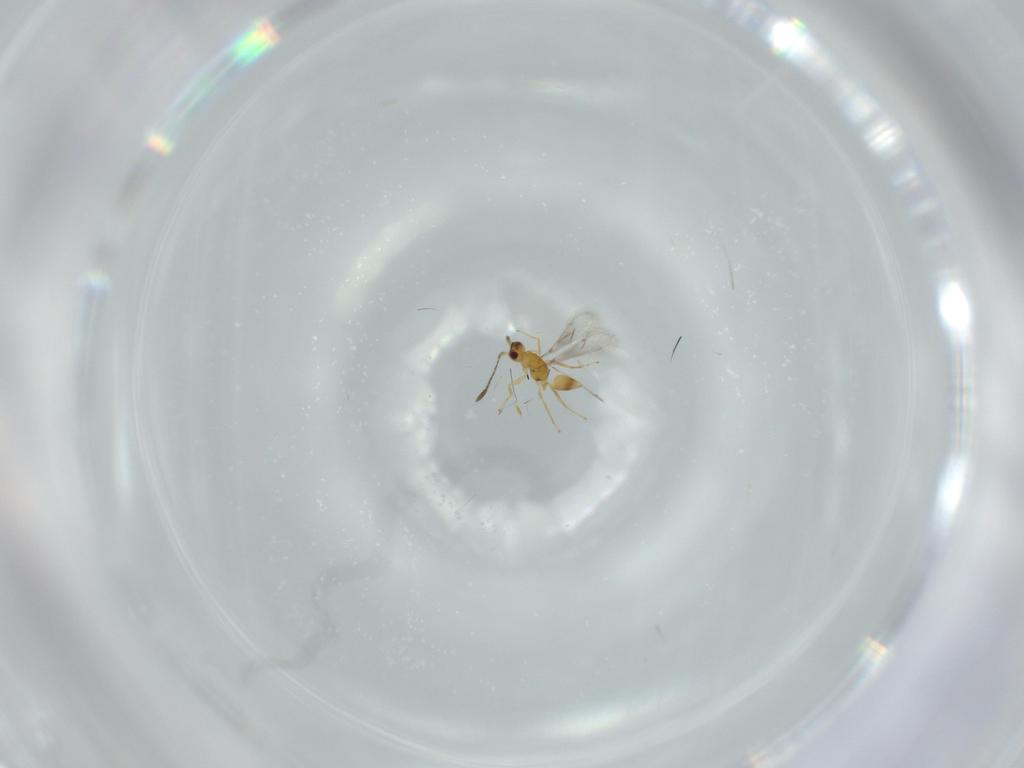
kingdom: Animalia
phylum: Arthropoda
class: Insecta
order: Hymenoptera
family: Mymaridae
